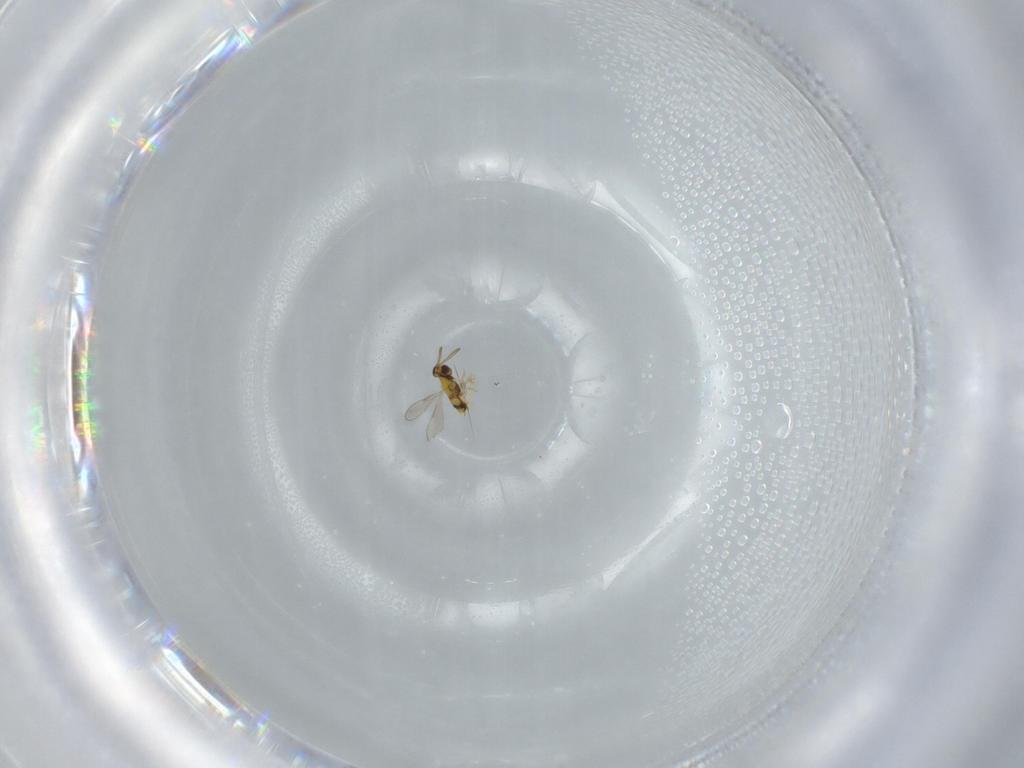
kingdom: Animalia
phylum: Arthropoda
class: Insecta
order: Hymenoptera
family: Aphelinidae
